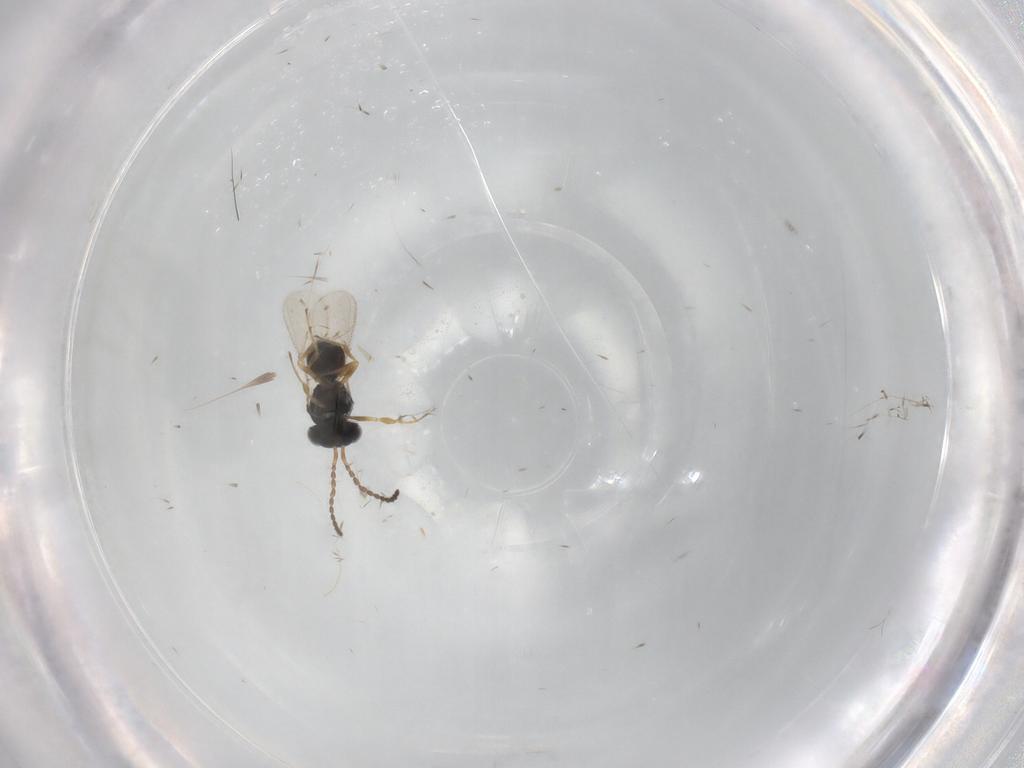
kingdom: Animalia
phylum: Arthropoda
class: Insecta
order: Hymenoptera
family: Scelionidae
